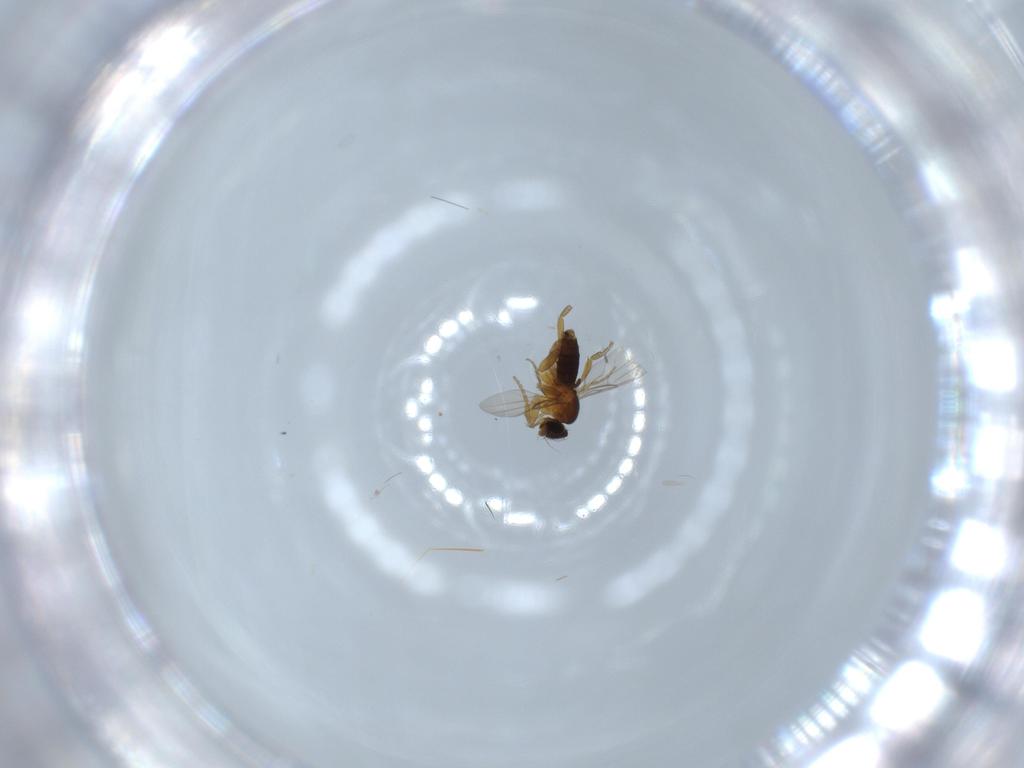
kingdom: Animalia
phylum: Arthropoda
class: Insecta
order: Diptera
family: Phoridae
